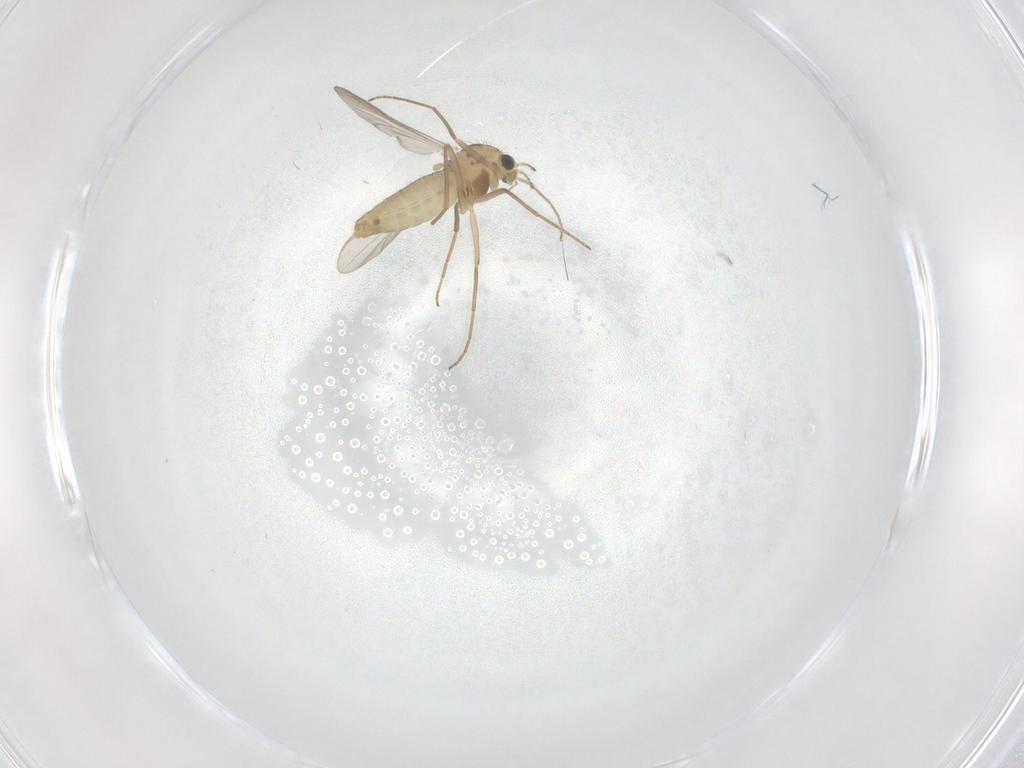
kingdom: Animalia
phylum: Arthropoda
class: Insecta
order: Diptera
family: Chironomidae
